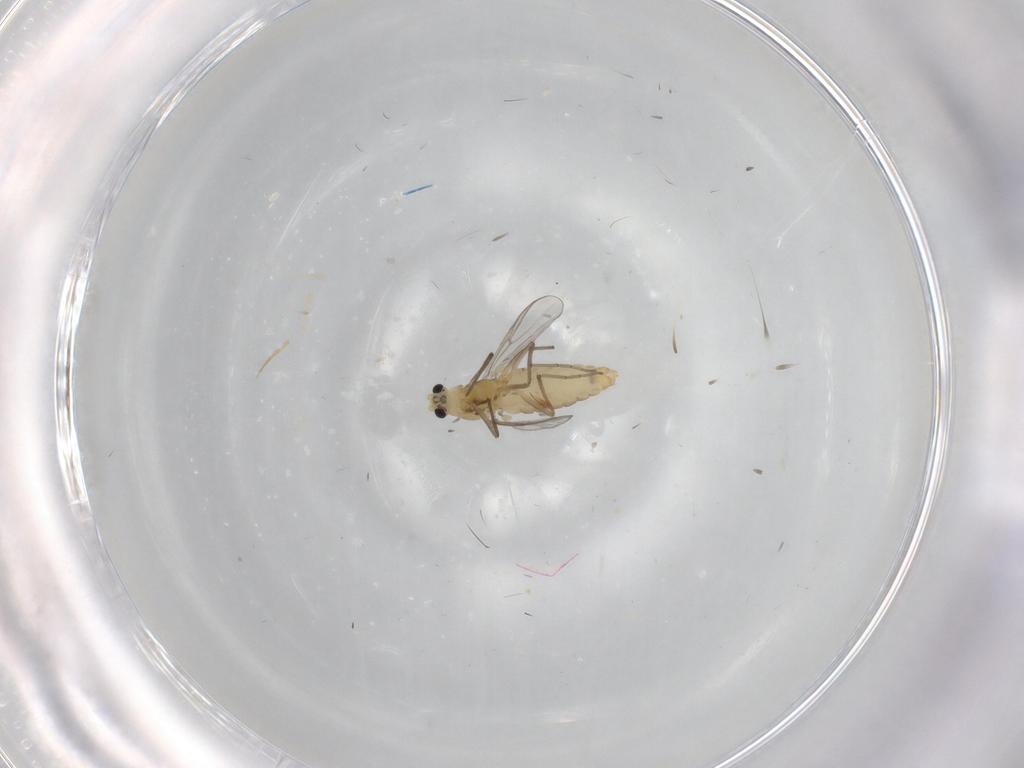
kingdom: Animalia
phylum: Arthropoda
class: Insecta
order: Diptera
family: Chironomidae
